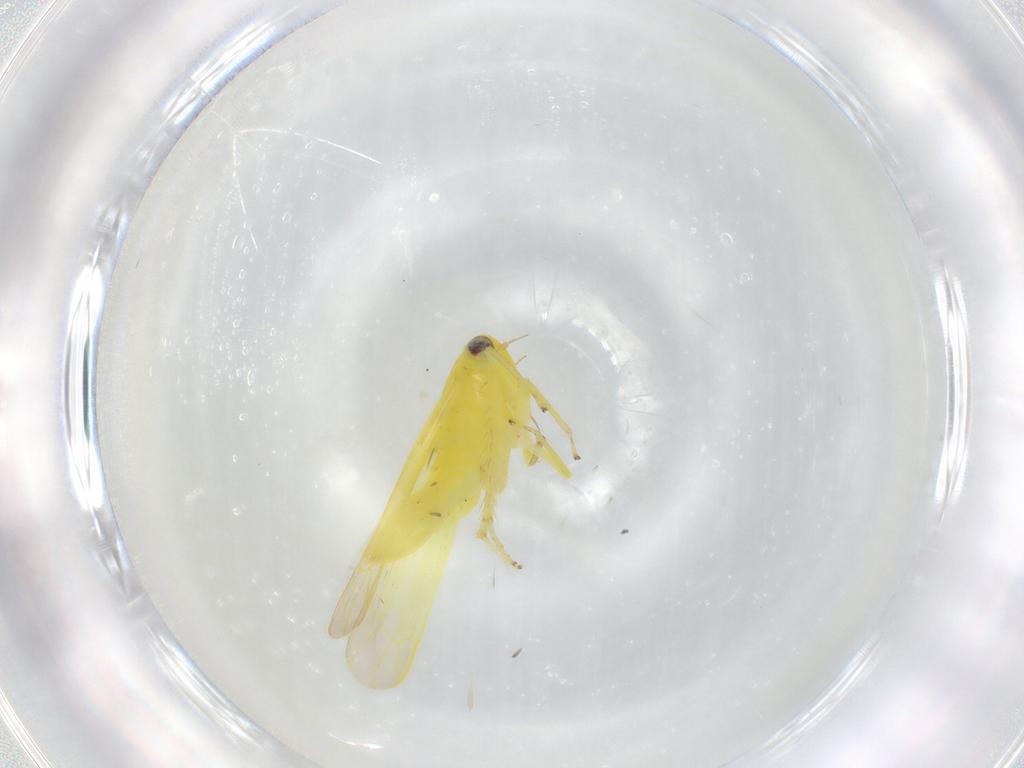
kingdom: Animalia
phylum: Arthropoda
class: Insecta
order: Hemiptera
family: Cicadellidae
